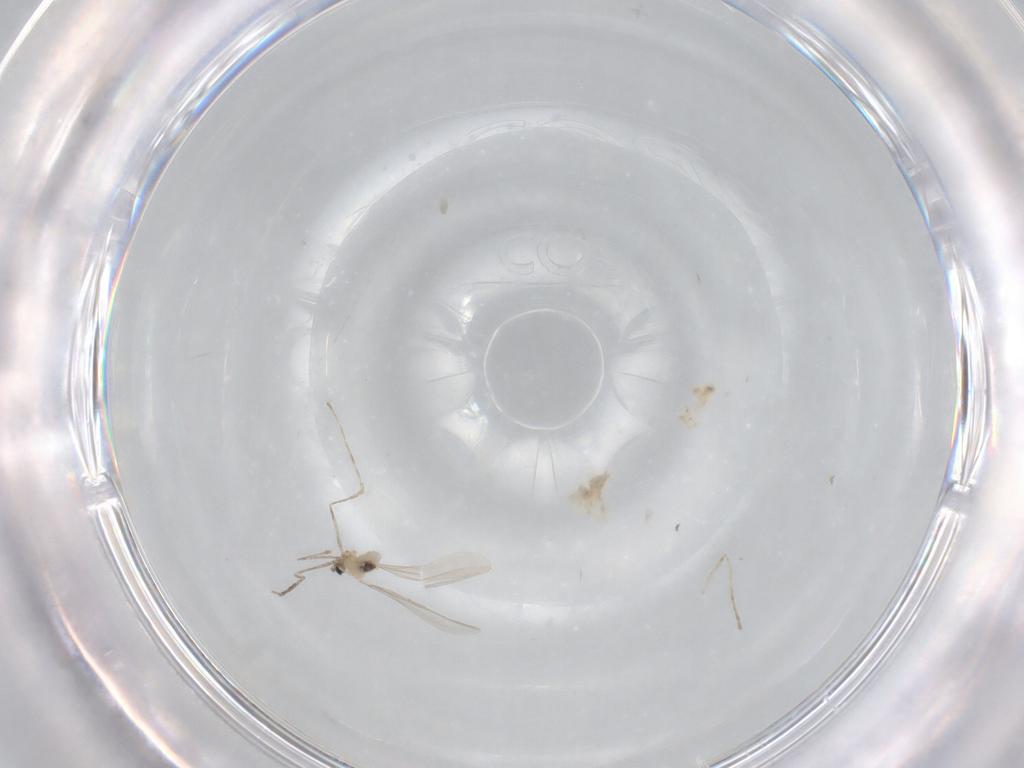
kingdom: Animalia
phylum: Arthropoda
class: Insecta
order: Diptera
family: Cecidomyiidae
